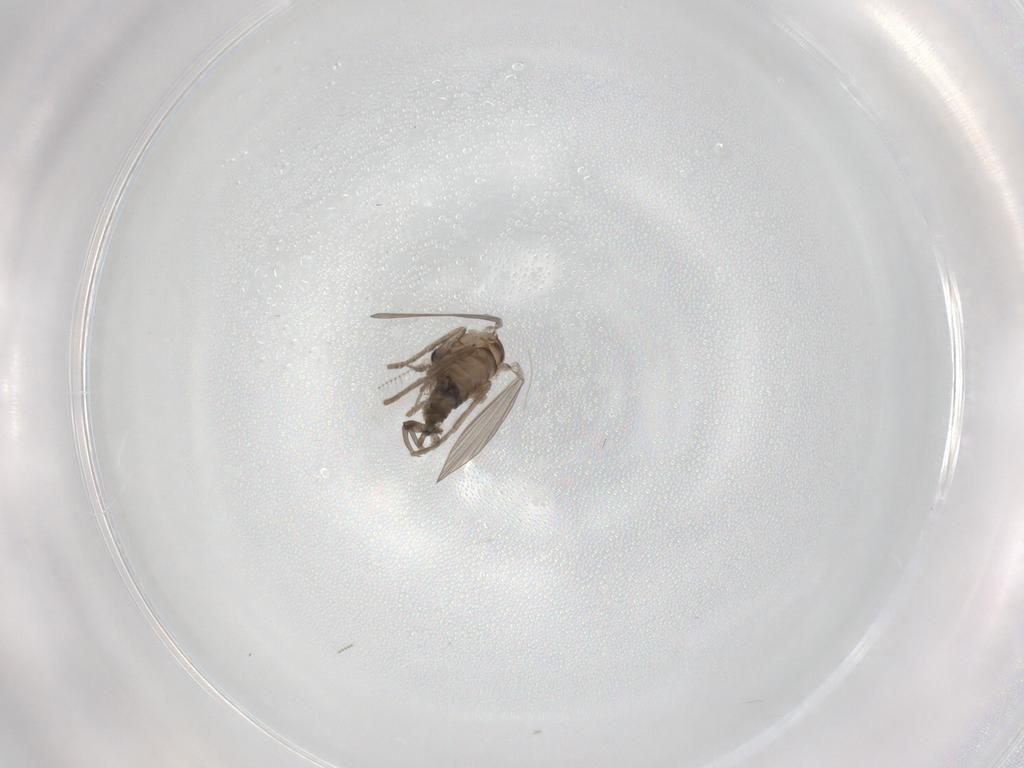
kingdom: Animalia
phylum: Arthropoda
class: Insecta
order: Diptera
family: Psychodidae
